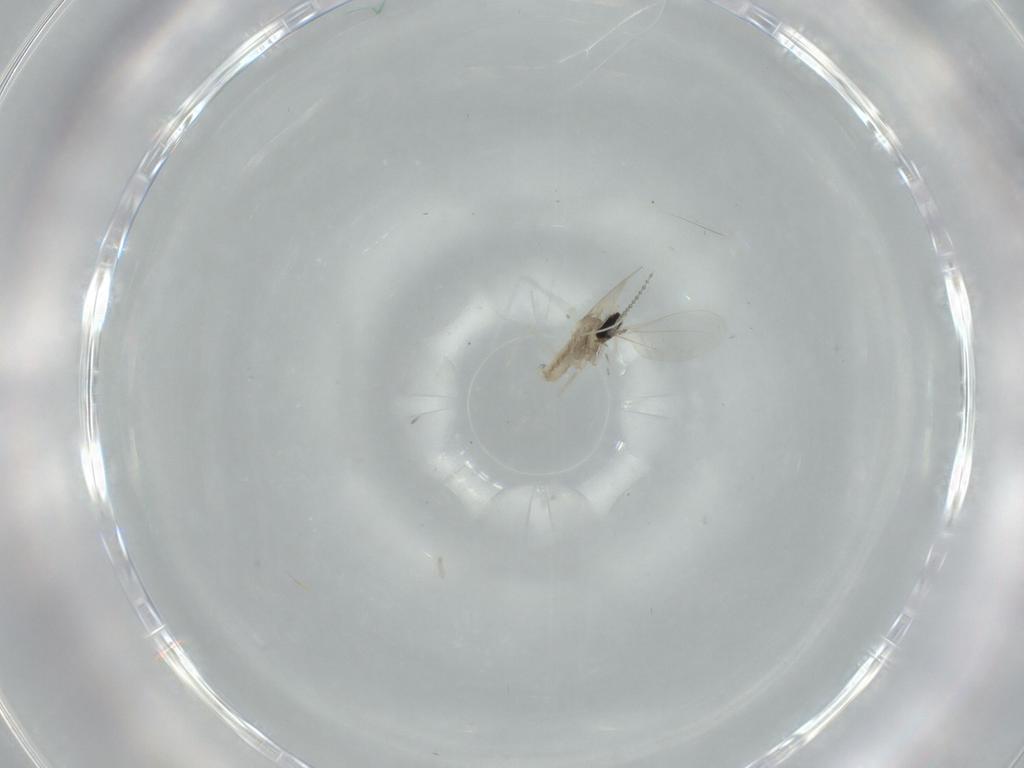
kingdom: Animalia
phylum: Arthropoda
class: Insecta
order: Diptera
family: Cecidomyiidae
